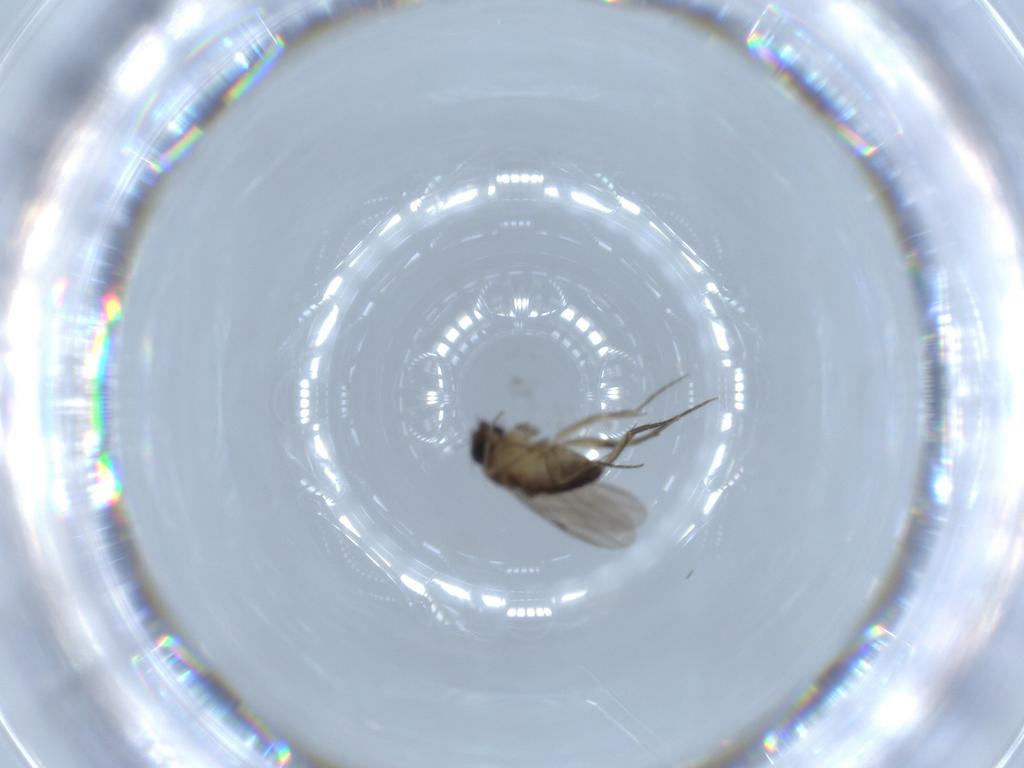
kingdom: Animalia
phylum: Arthropoda
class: Insecta
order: Diptera
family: Phoridae
